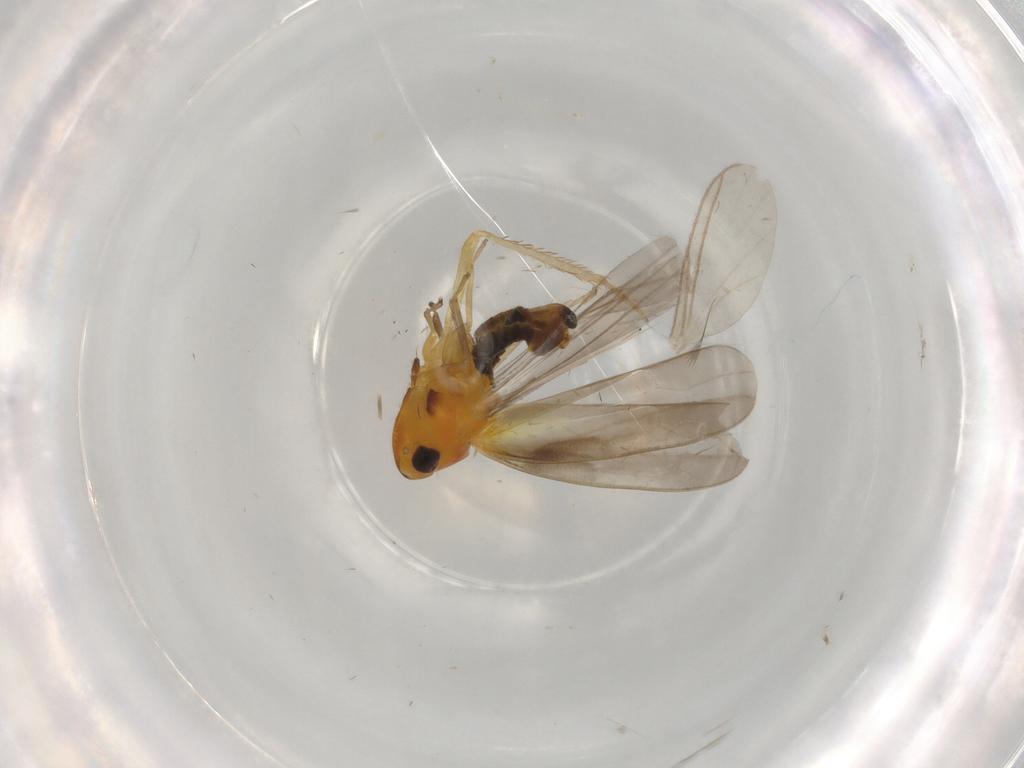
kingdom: Animalia
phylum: Arthropoda
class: Insecta
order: Hemiptera
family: Cicadellidae
